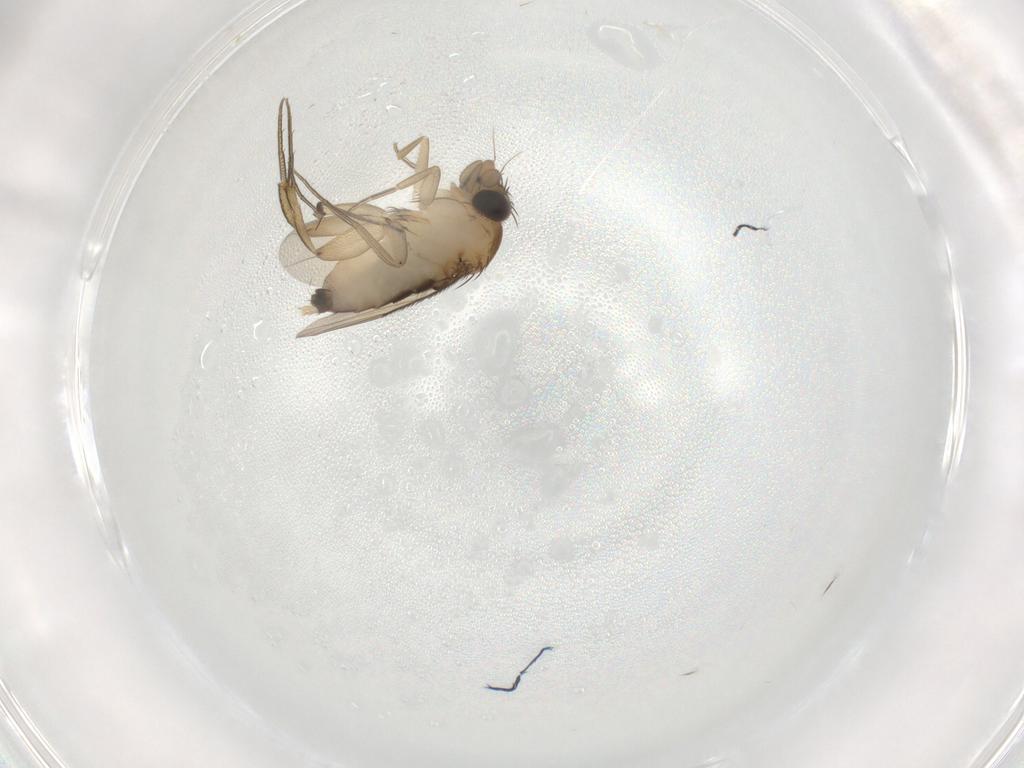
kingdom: Animalia
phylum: Arthropoda
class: Insecta
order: Diptera
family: Phoridae
